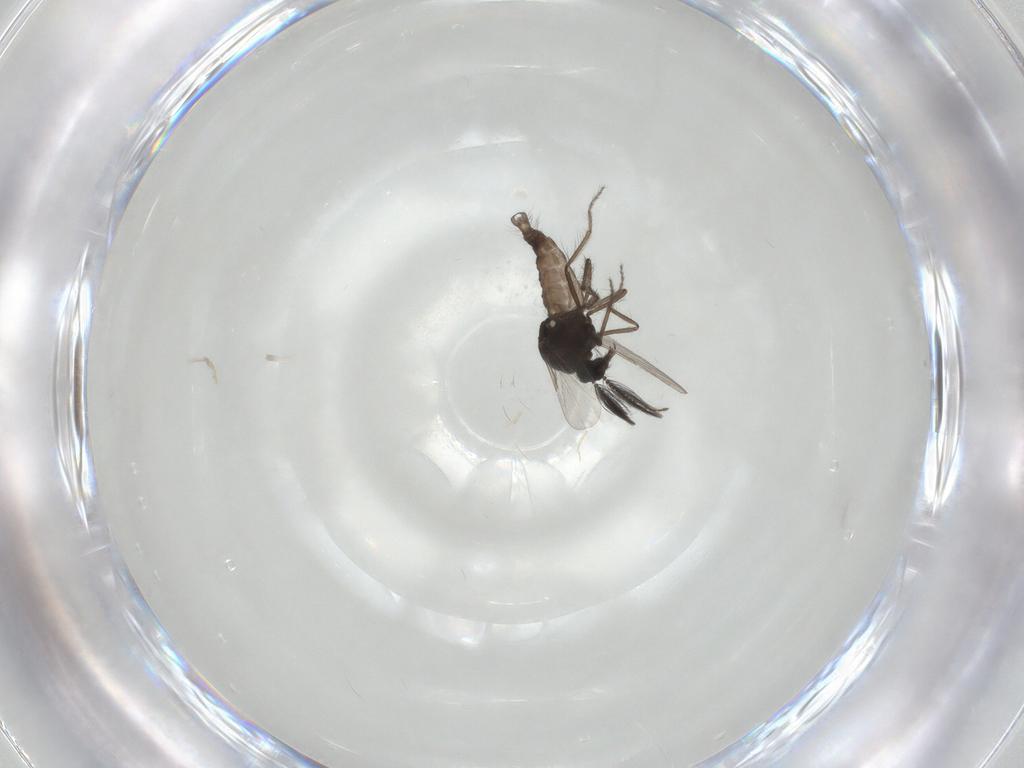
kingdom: Animalia
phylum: Arthropoda
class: Insecta
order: Diptera
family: Ceratopogonidae
